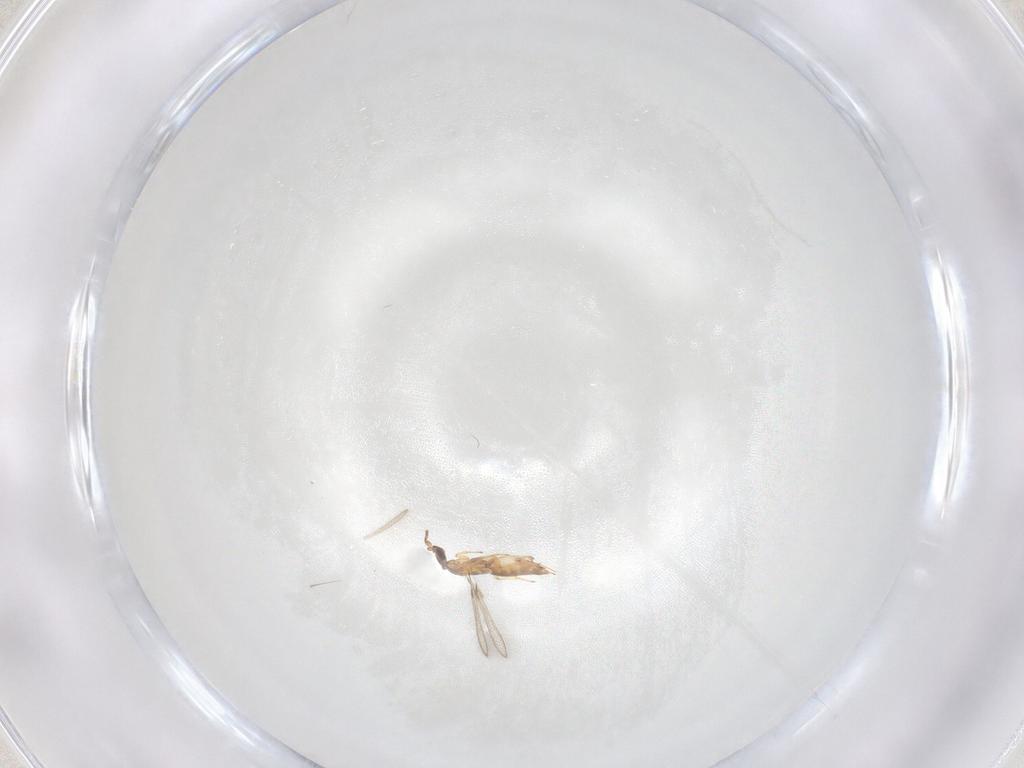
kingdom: Animalia
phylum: Arthropoda
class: Insecta
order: Hymenoptera
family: Mymaridae
